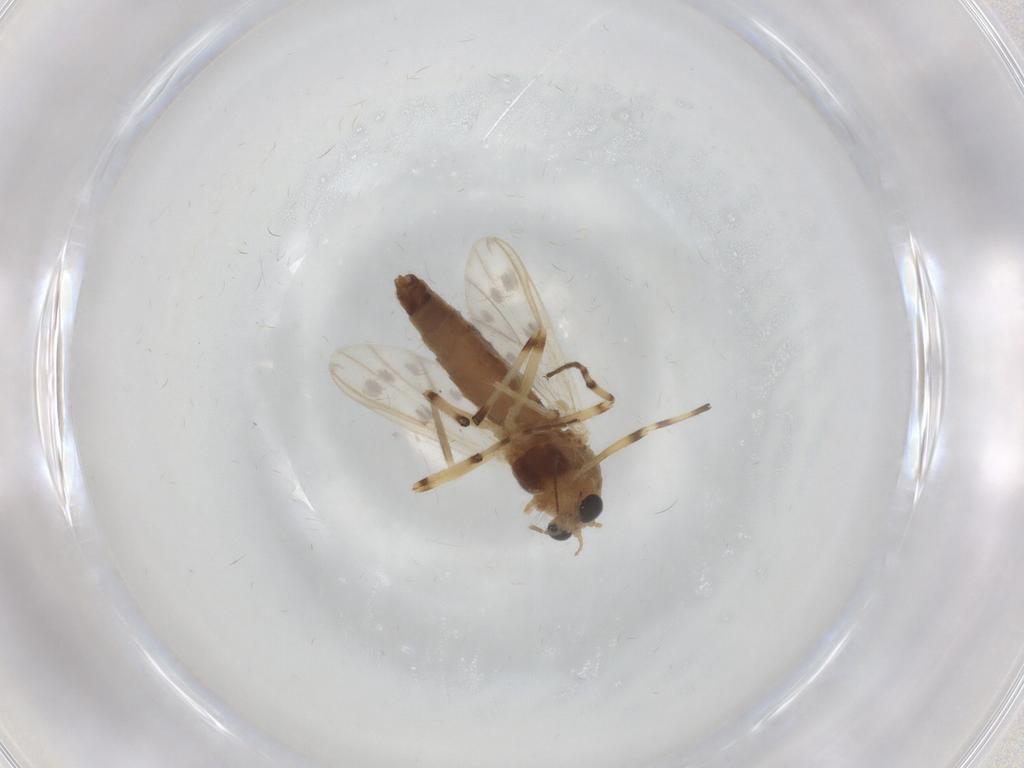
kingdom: Animalia
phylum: Arthropoda
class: Insecta
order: Diptera
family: Chironomidae
